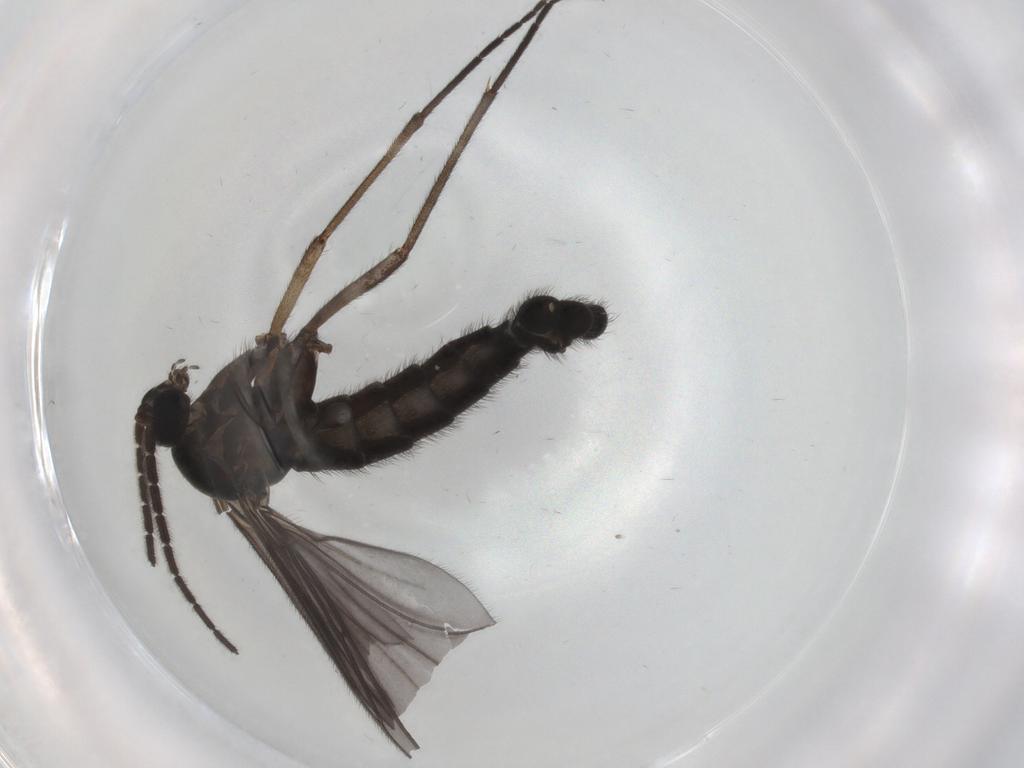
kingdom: Animalia
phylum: Arthropoda
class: Insecta
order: Diptera
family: Sciaridae
